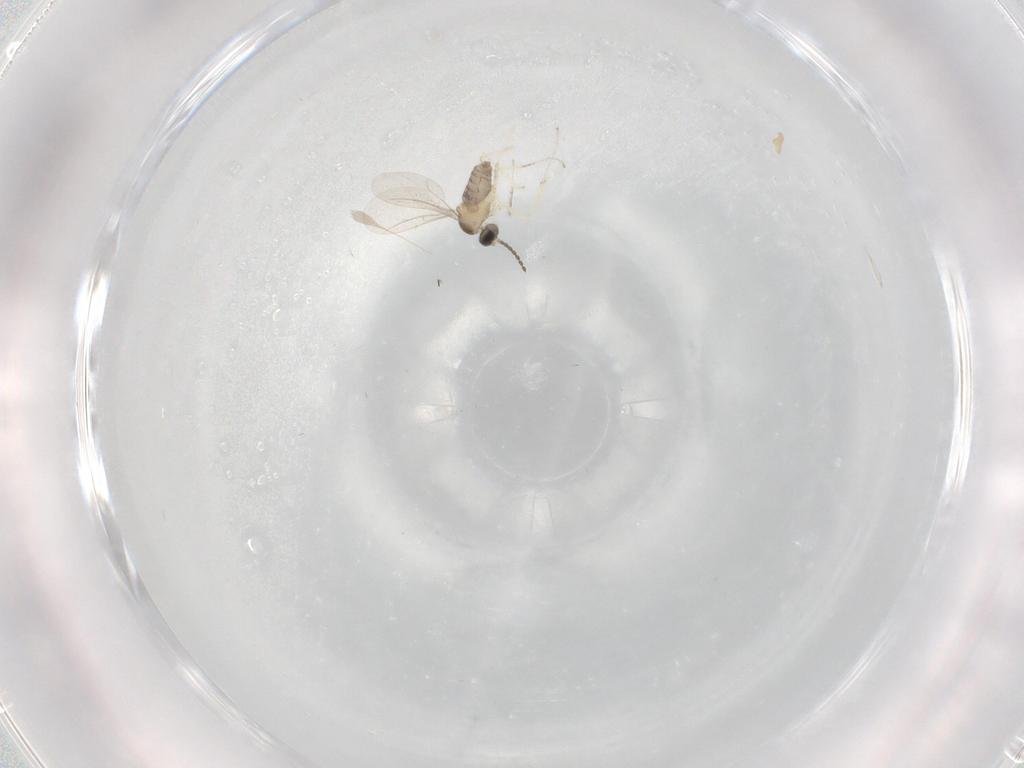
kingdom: Animalia
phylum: Arthropoda
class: Insecta
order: Diptera
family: Cecidomyiidae
